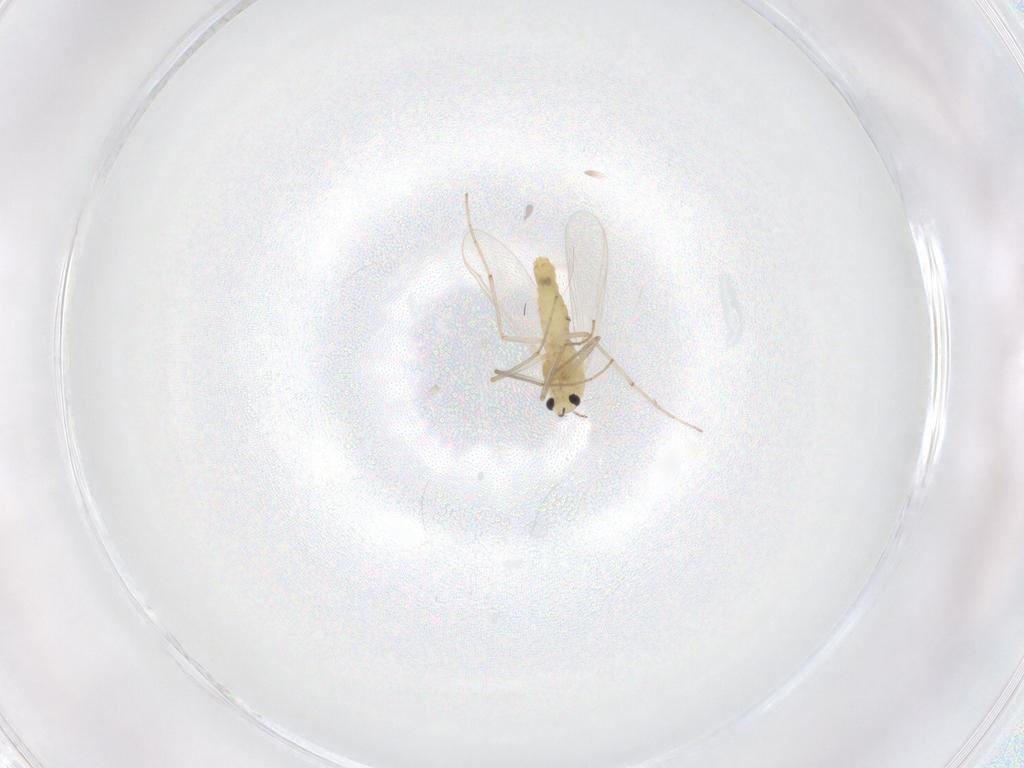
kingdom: Animalia
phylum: Arthropoda
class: Insecta
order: Diptera
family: Chironomidae
